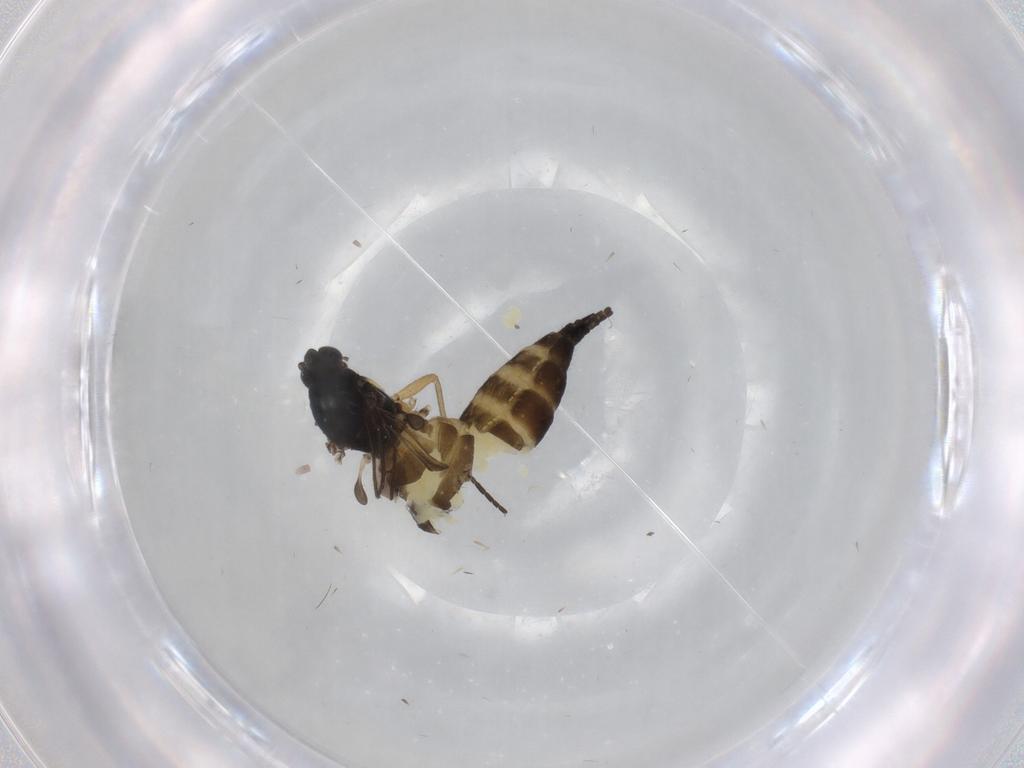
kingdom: Animalia
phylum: Arthropoda
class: Insecta
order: Diptera
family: Sciaridae
